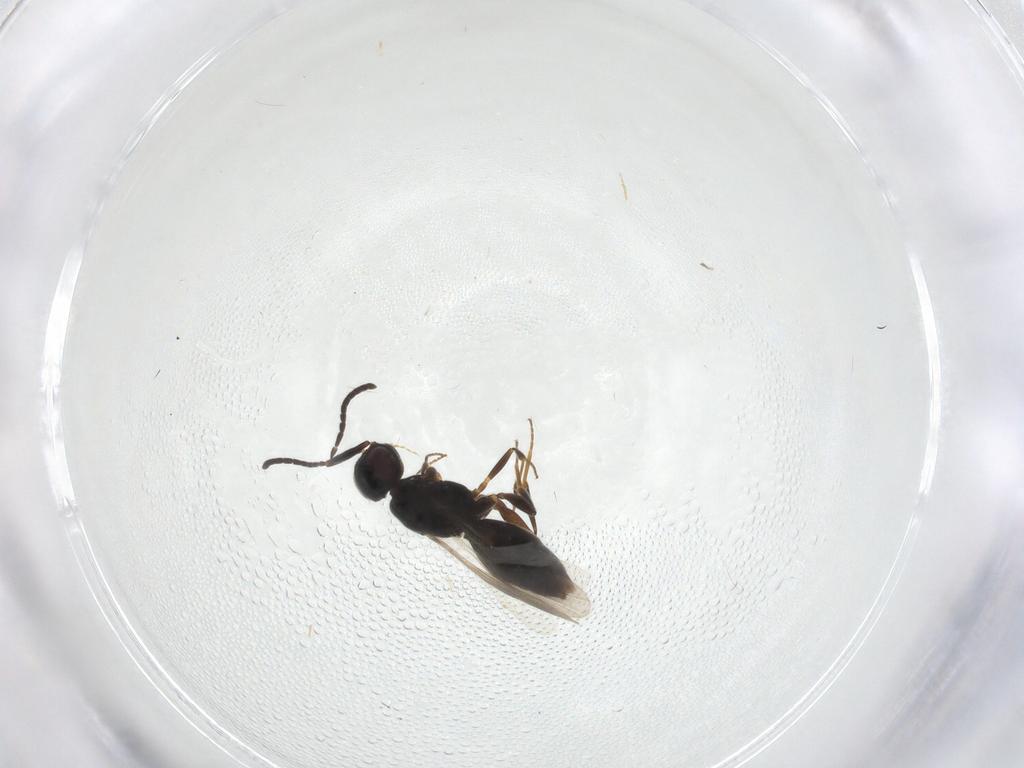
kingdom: Animalia
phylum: Arthropoda
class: Insecta
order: Hymenoptera
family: Megaspilidae
